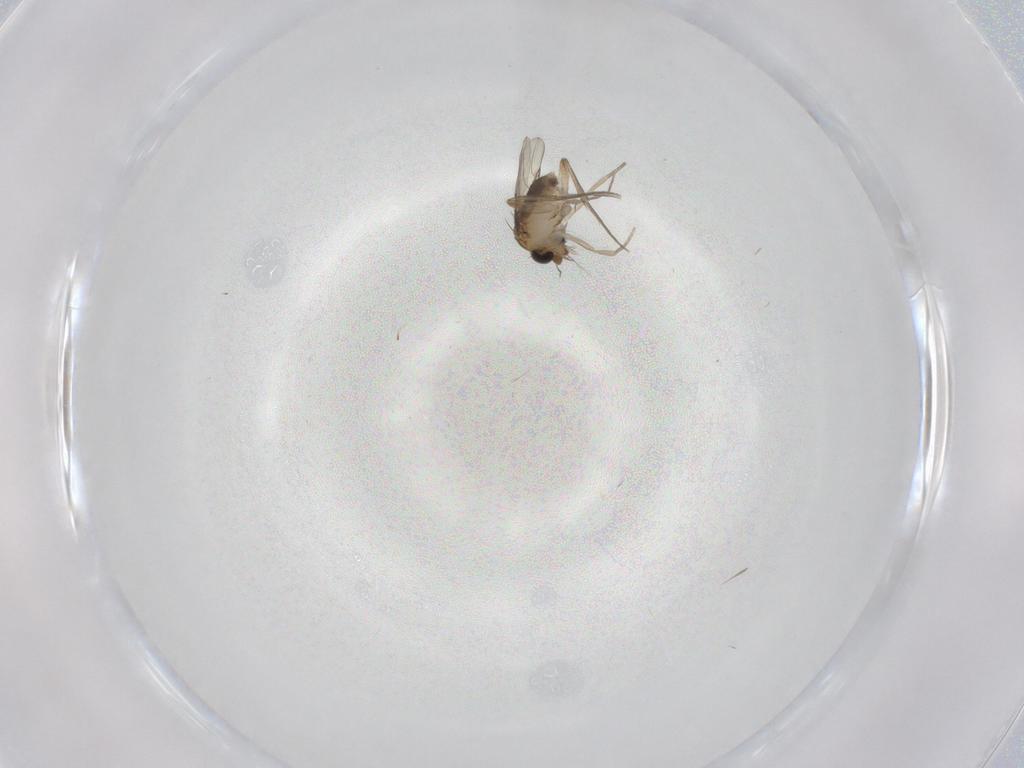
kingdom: Animalia
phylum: Arthropoda
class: Insecta
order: Diptera
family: Phoridae
